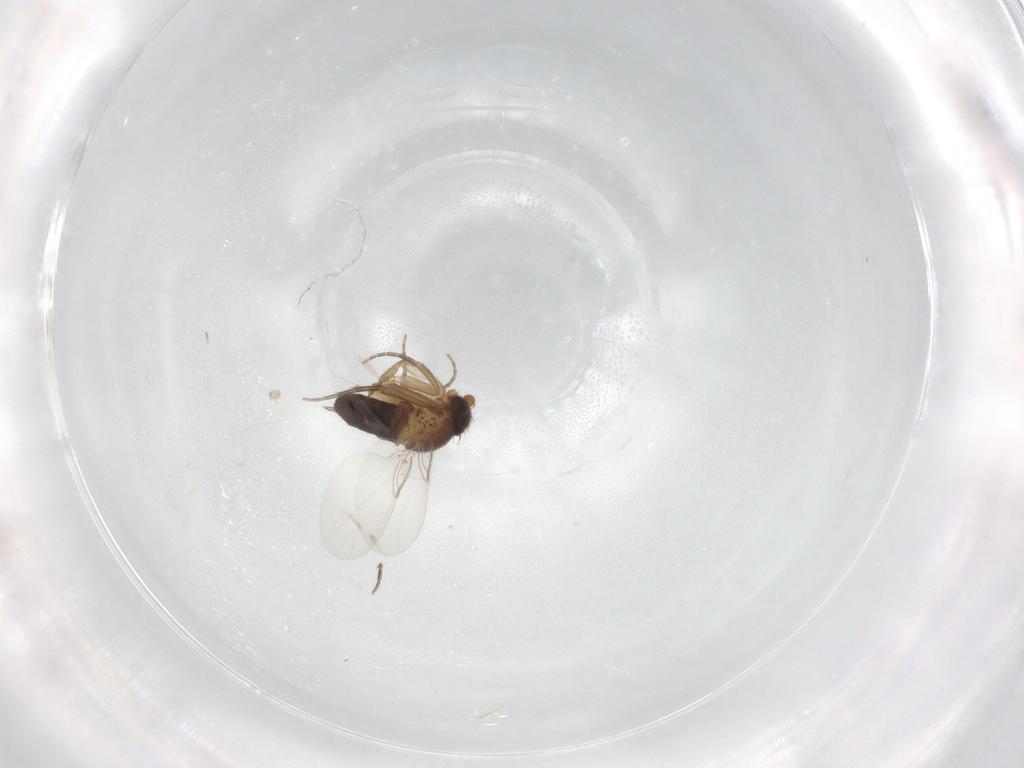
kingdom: Animalia
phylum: Arthropoda
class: Insecta
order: Diptera
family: Phoridae
